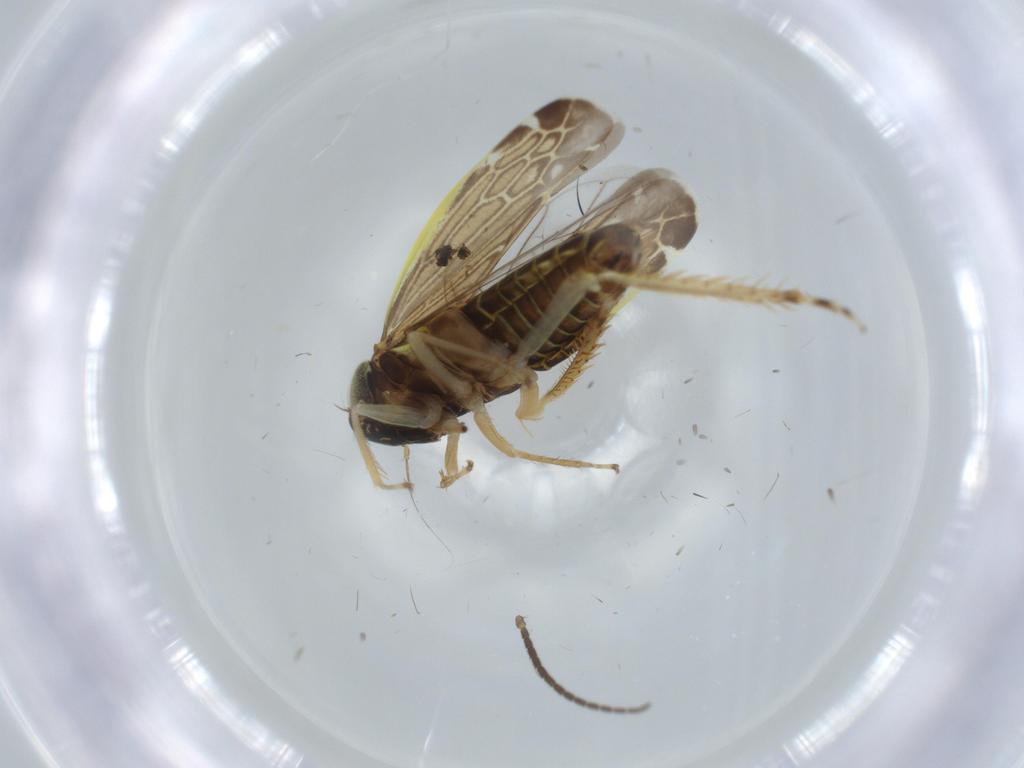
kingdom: Animalia
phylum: Arthropoda
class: Insecta
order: Hemiptera
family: Cicadellidae
